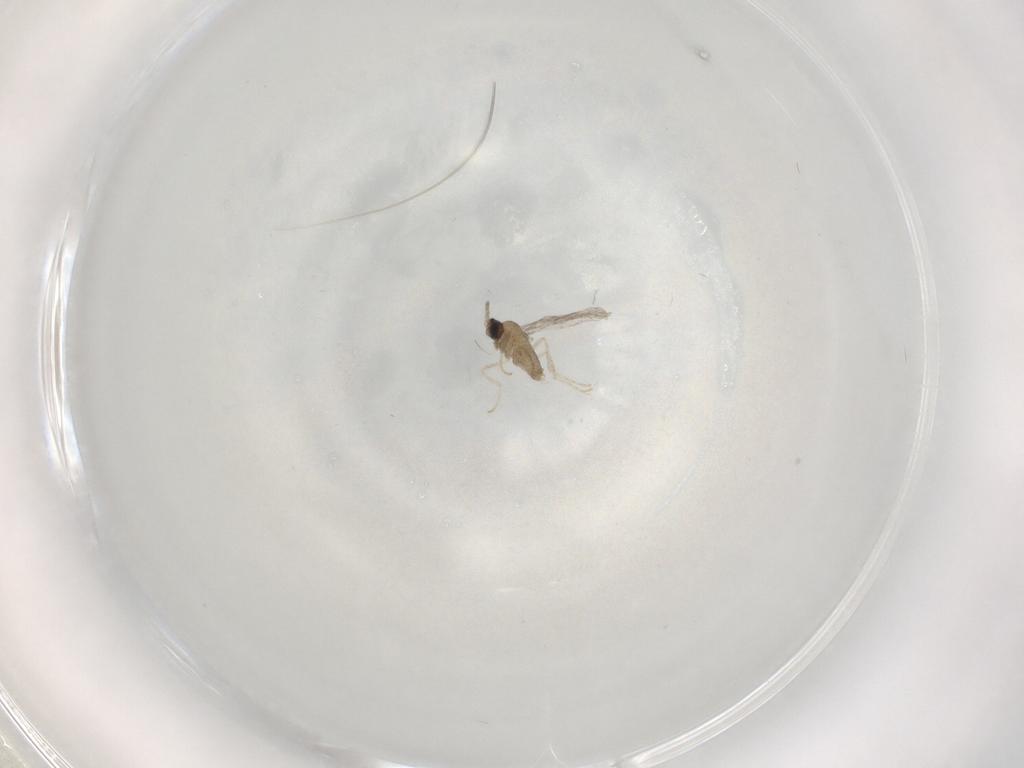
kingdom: Animalia
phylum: Arthropoda
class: Insecta
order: Diptera
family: Cecidomyiidae
